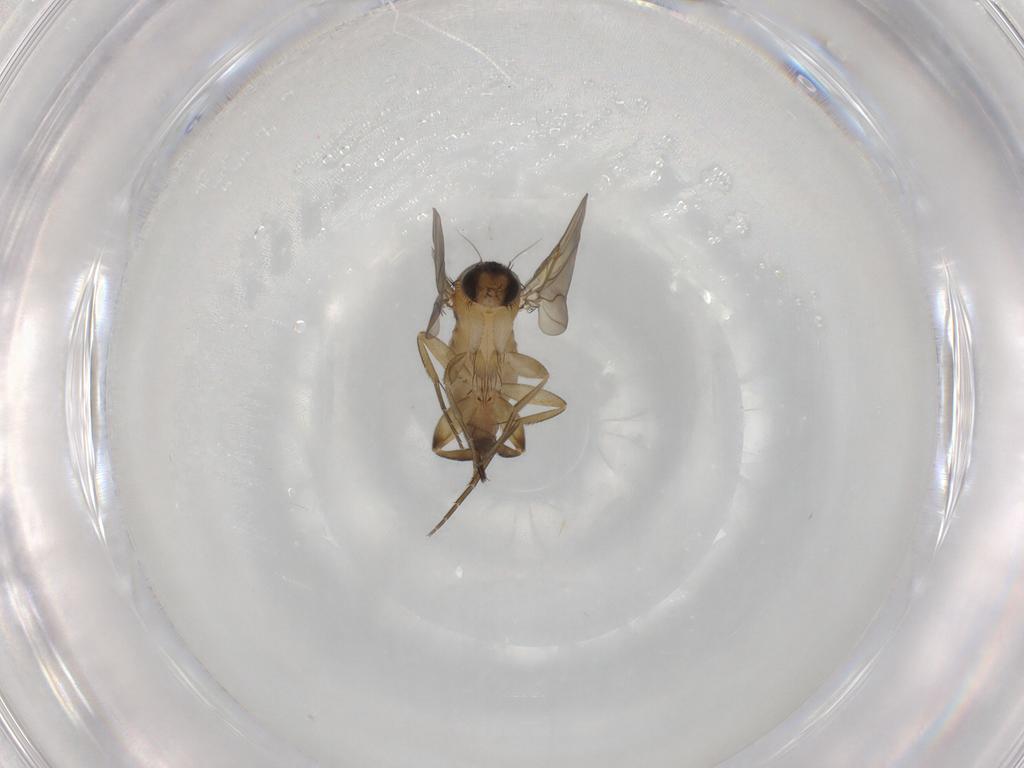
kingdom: Animalia
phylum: Arthropoda
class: Insecta
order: Diptera
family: Phoridae
